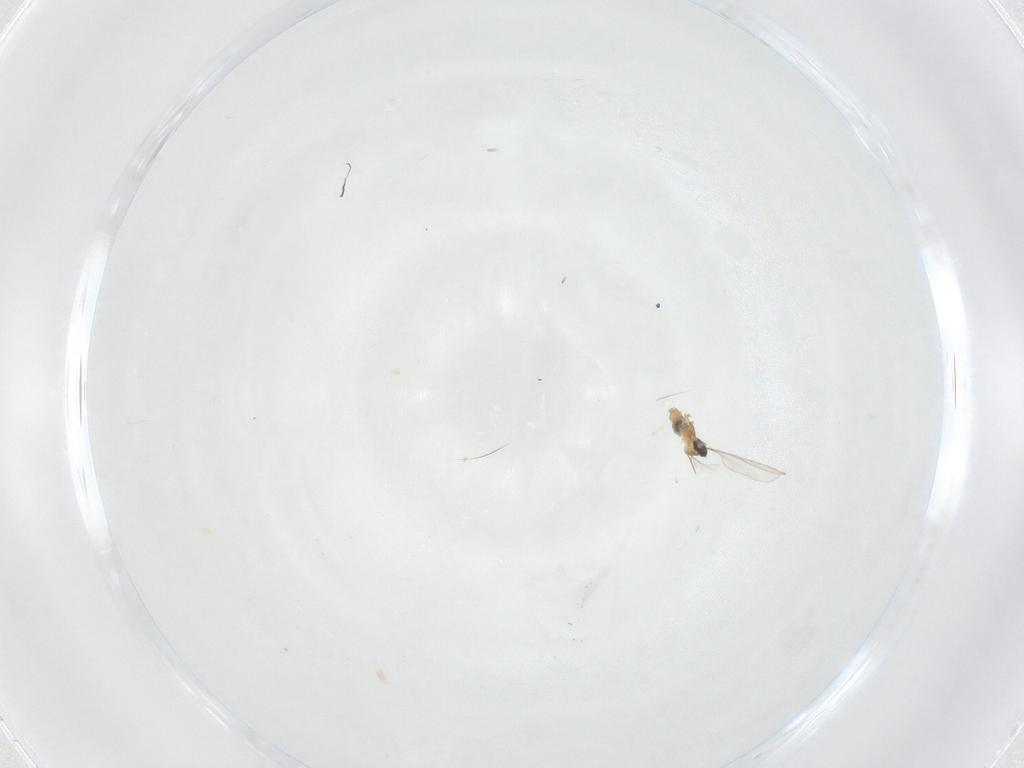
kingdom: Animalia
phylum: Arthropoda
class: Insecta
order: Diptera
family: Cecidomyiidae
